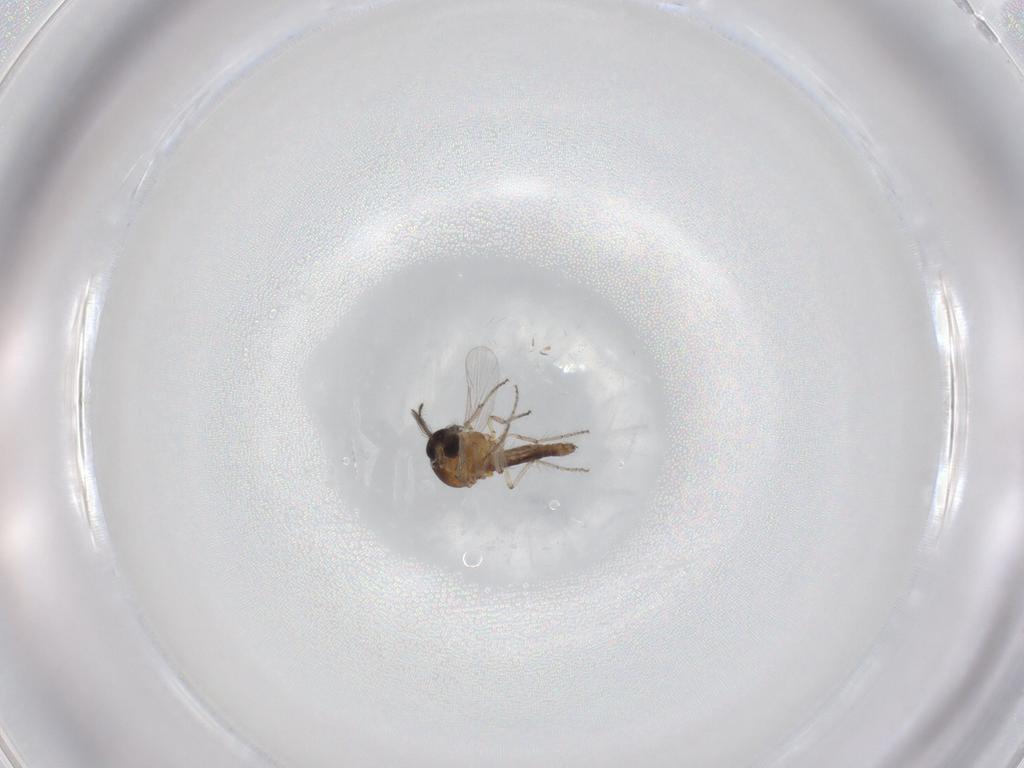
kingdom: Animalia
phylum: Arthropoda
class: Insecta
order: Diptera
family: Ceratopogonidae
